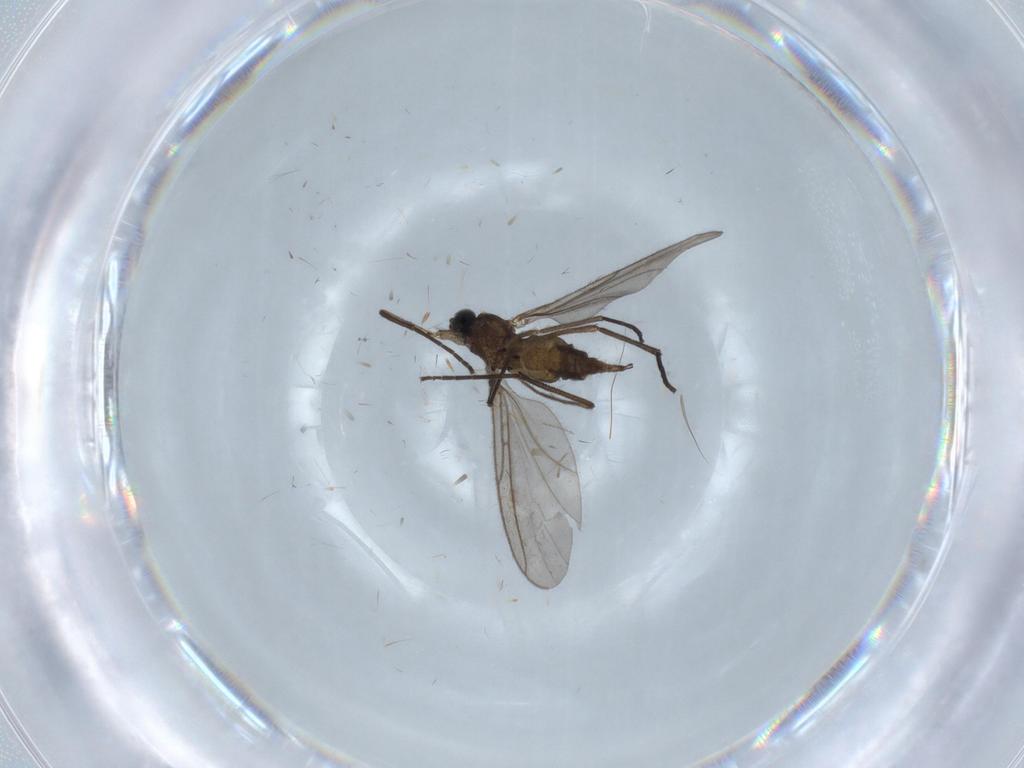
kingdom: Animalia
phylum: Arthropoda
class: Insecta
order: Diptera
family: Sciaridae
